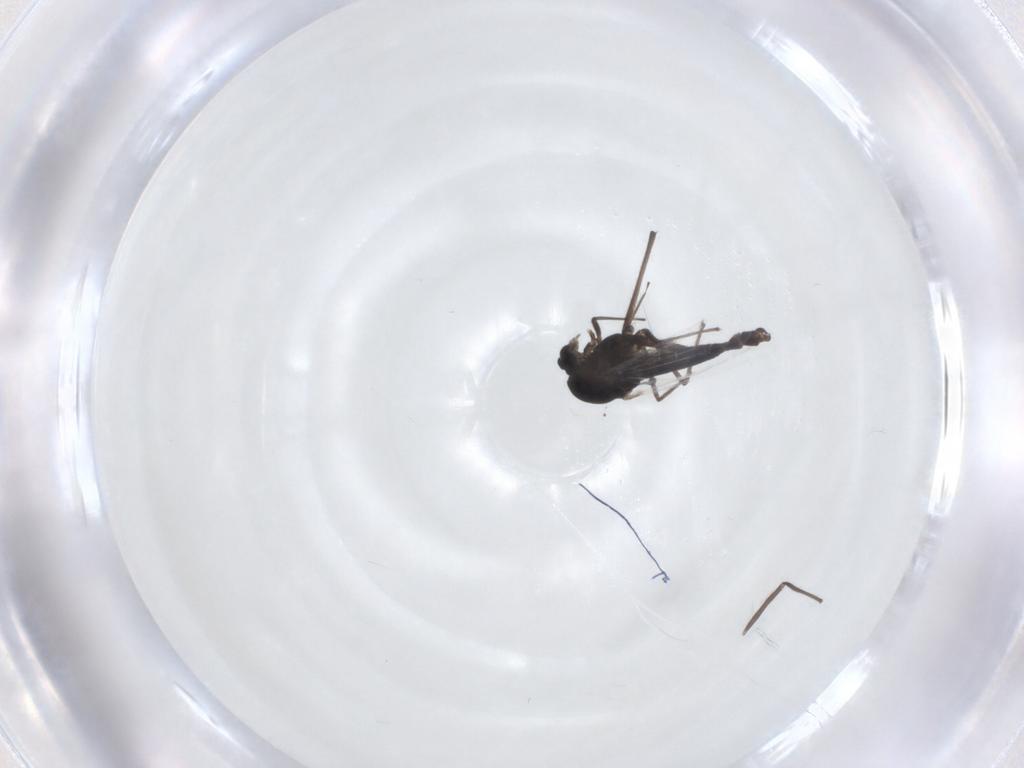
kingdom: Animalia
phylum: Arthropoda
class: Insecta
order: Diptera
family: Chironomidae
